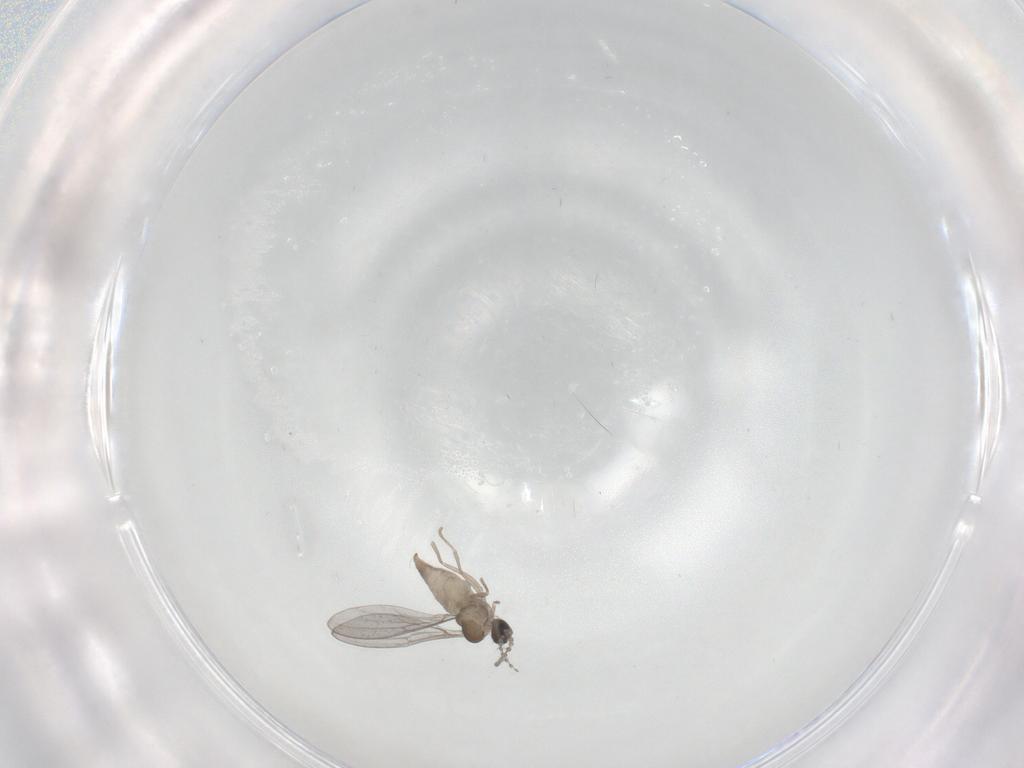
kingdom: Animalia
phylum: Arthropoda
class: Insecta
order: Diptera
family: Cecidomyiidae
